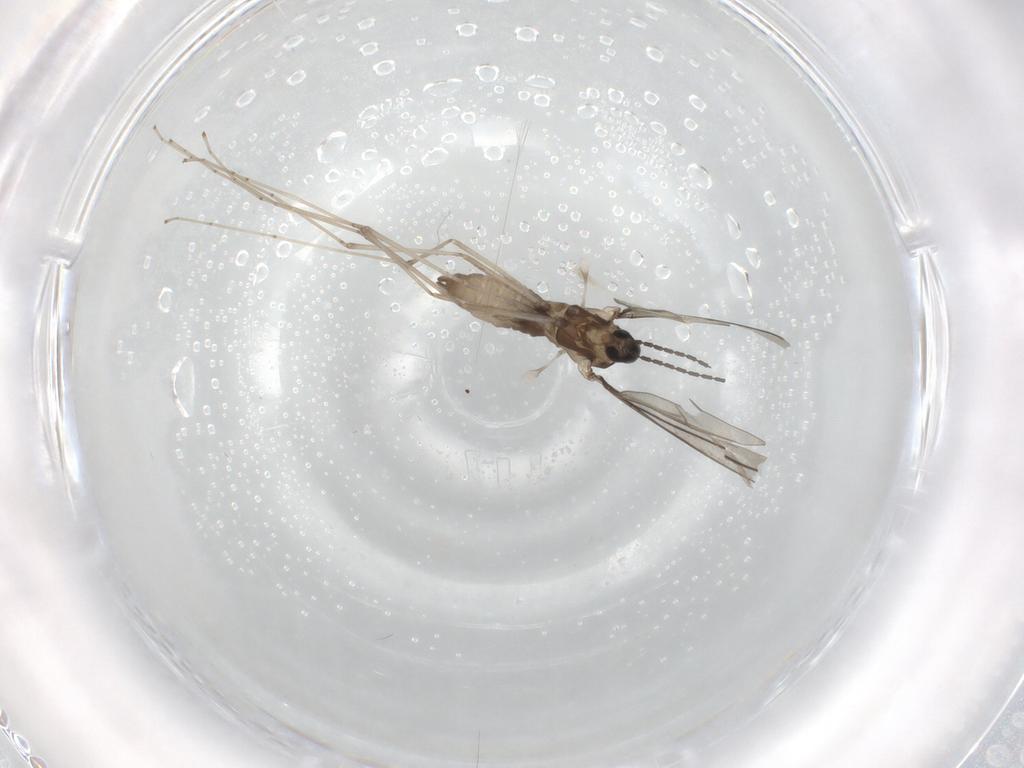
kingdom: Animalia
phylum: Arthropoda
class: Insecta
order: Diptera
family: Cecidomyiidae
